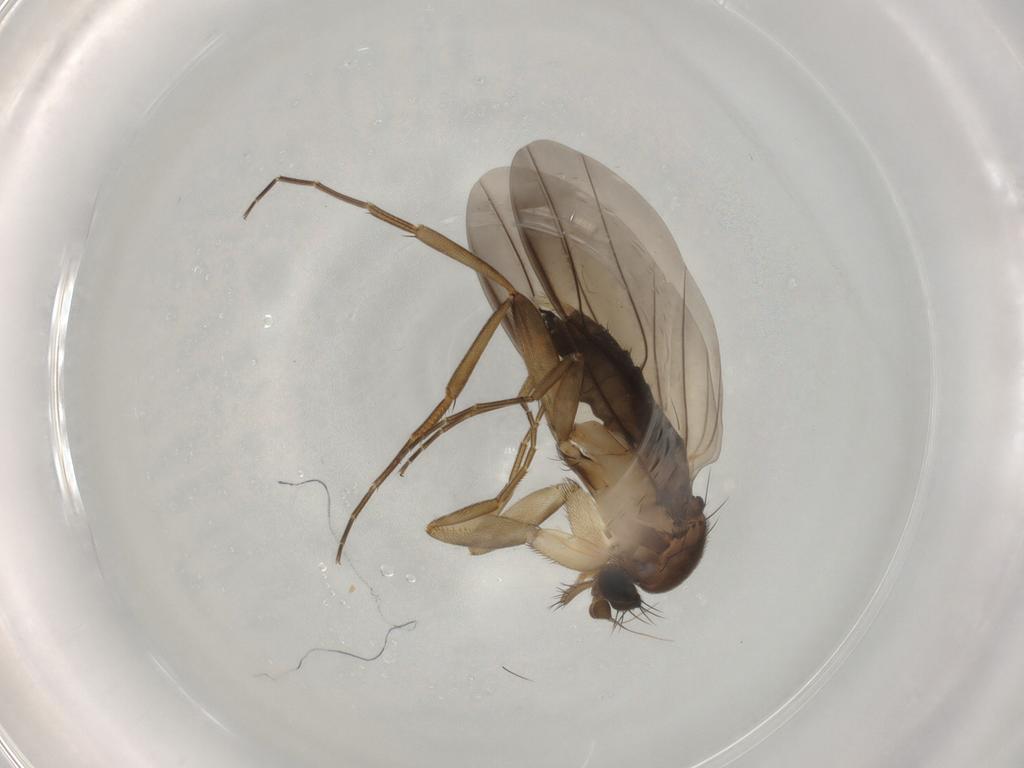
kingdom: Animalia
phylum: Arthropoda
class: Insecta
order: Diptera
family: Phoridae
